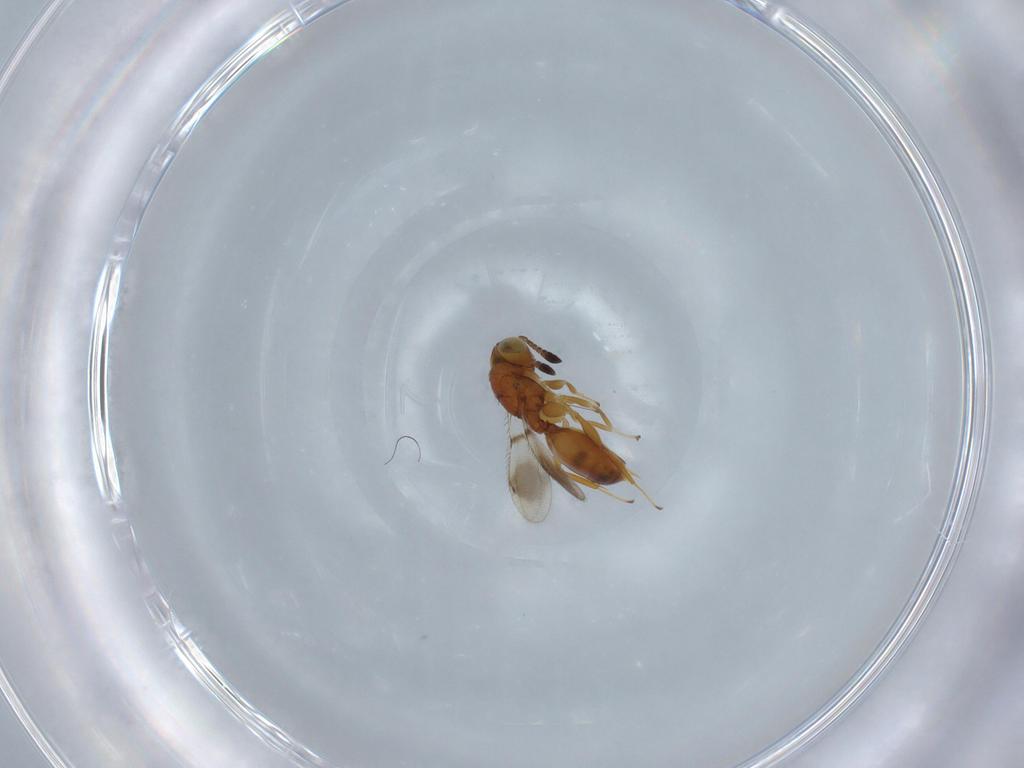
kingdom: Animalia
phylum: Arthropoda
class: Insecta
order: Hymenoptera
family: Moranilidae
